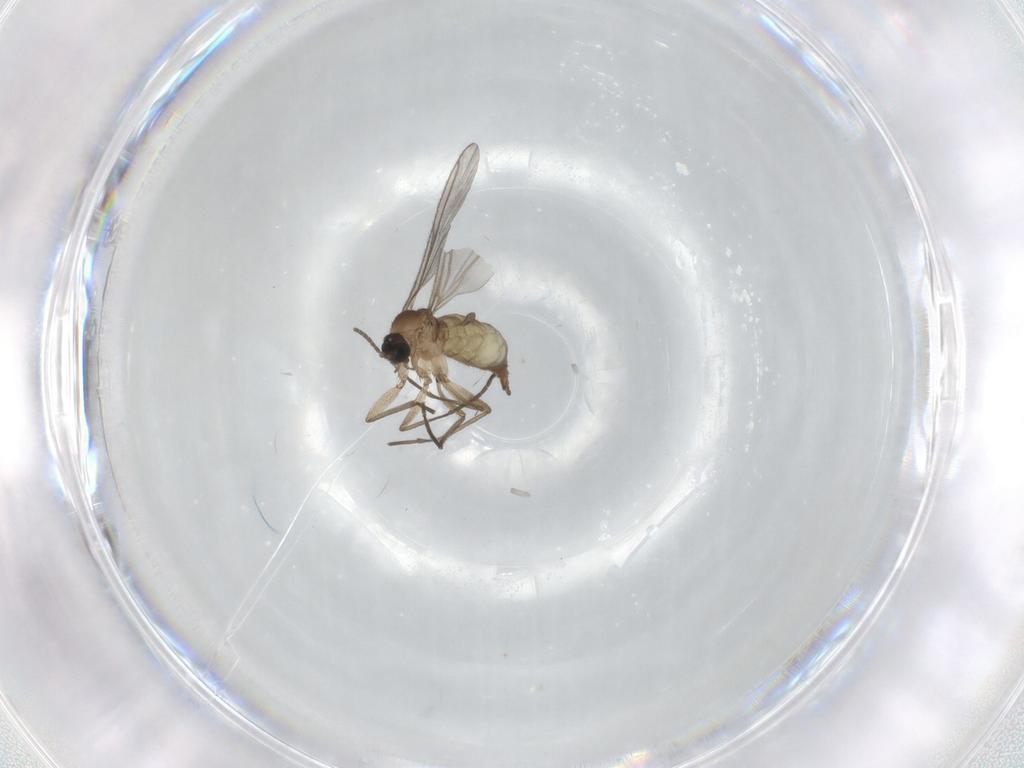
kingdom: Animalia
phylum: Arthropoda
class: Insecta
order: Diptera
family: Sciaridae
